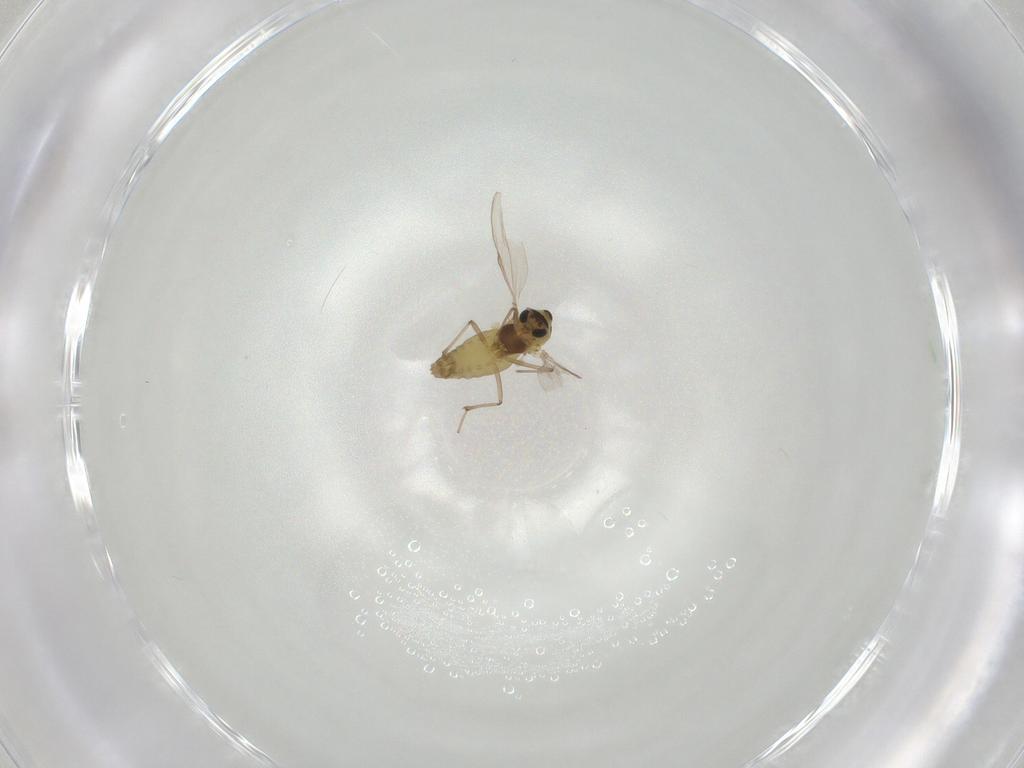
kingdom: Animalia
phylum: Arthropoda
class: Insecta
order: Diptera
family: Chironomidae
